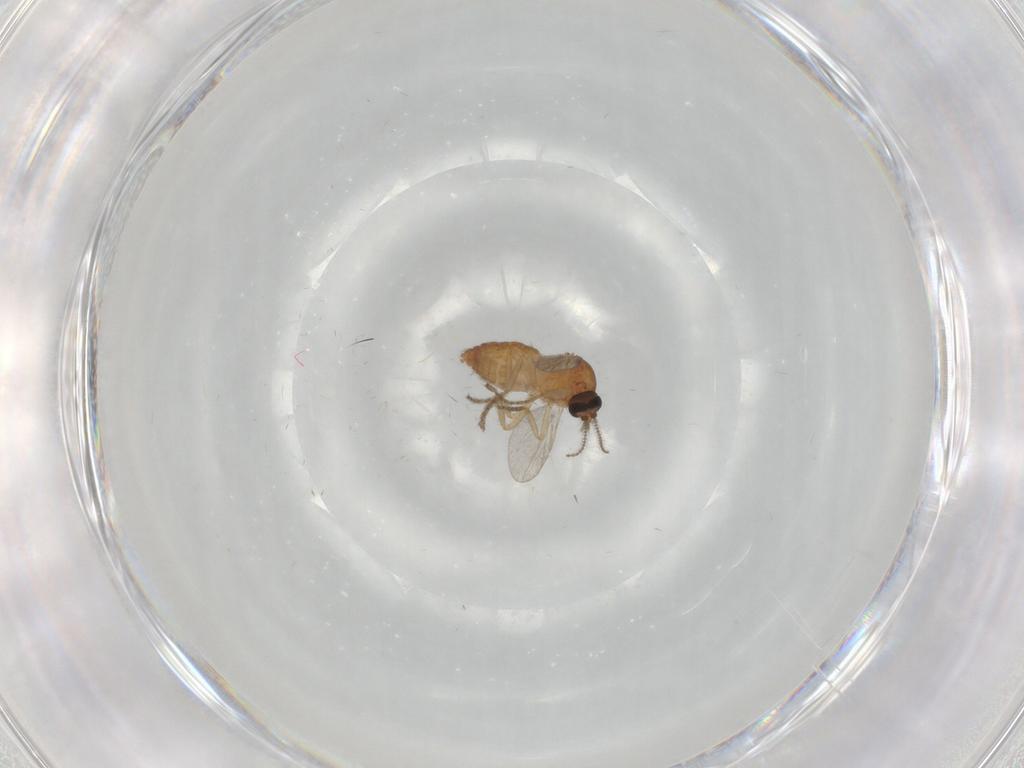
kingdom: Animalia
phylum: Arthropoda
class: Insecta
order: Diptera
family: Ceratopogonidae
